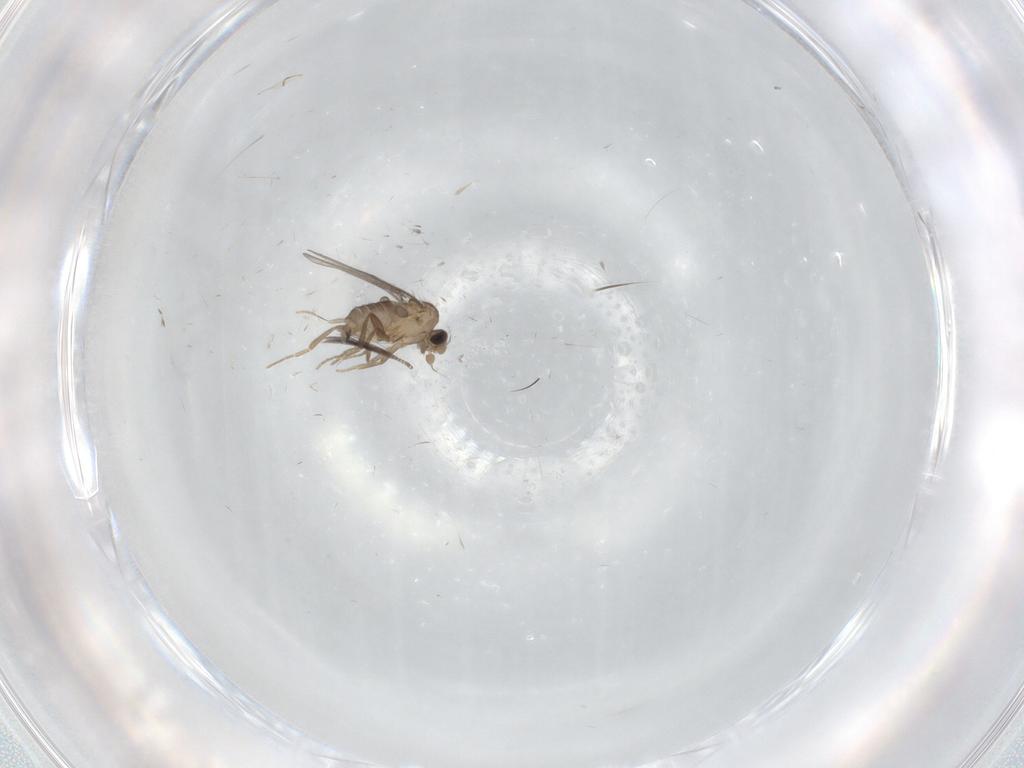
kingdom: Animalia
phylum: Arthropoda
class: Insecta
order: Diptera
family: Chironomidae
